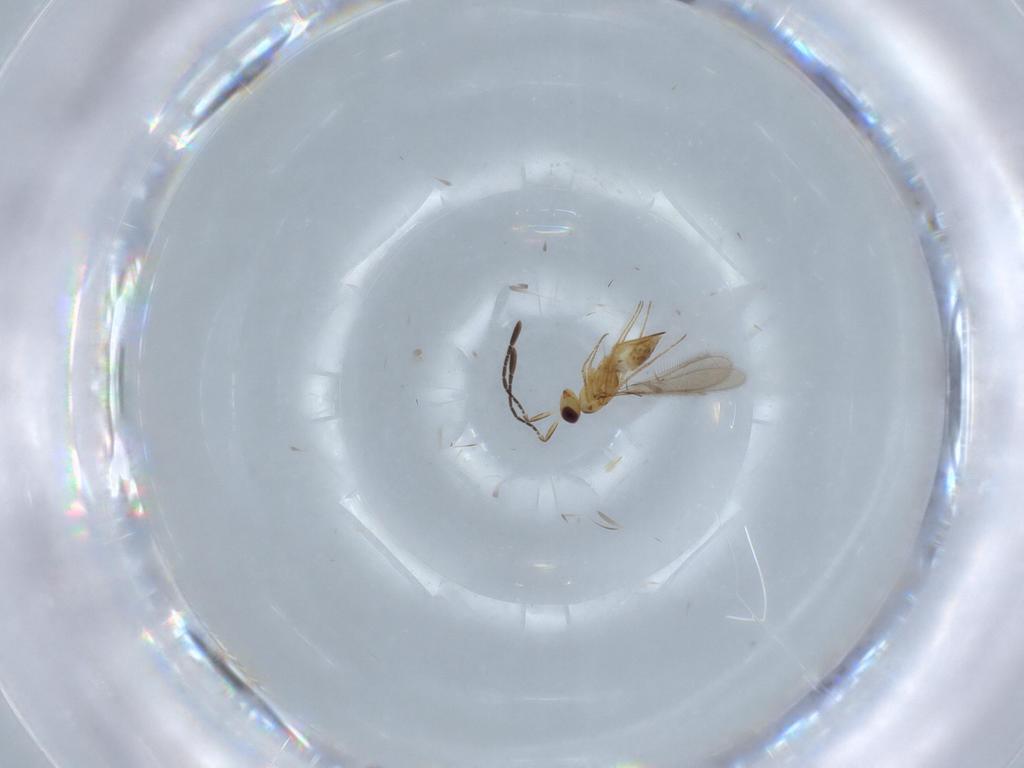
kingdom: Animalia
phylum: Arthropoda
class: Insecta
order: Hymenoptera
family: Mymaridae
